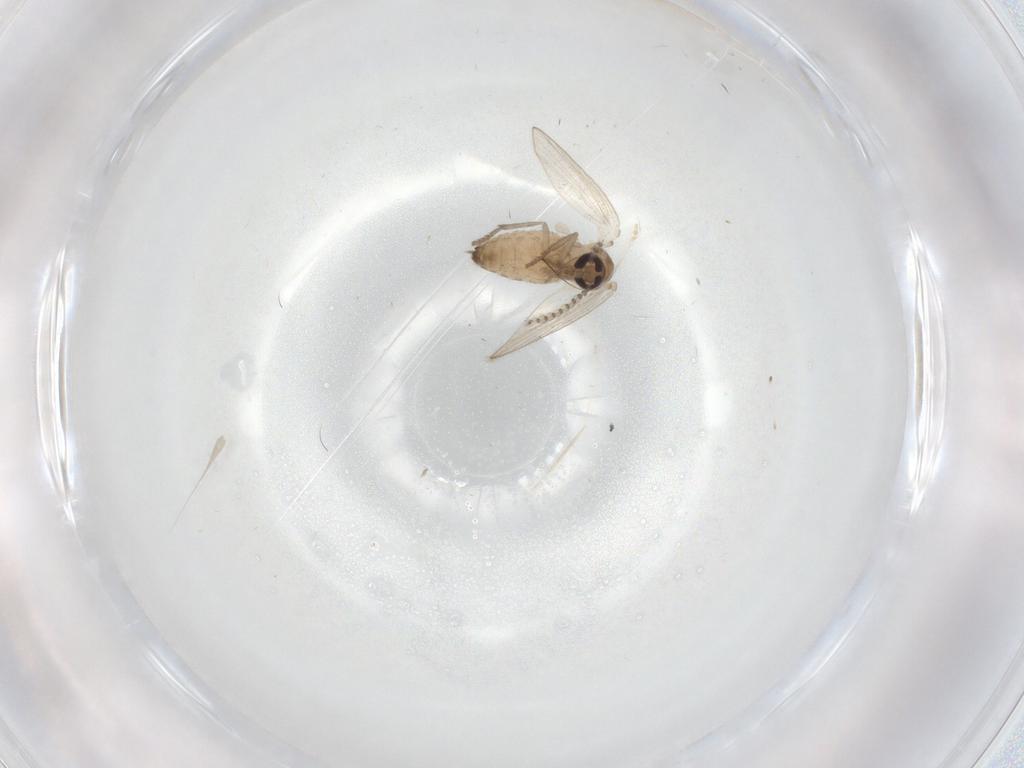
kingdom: Animalia
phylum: Arthropoda
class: Insecta
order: Diptera
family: Psychodidae
